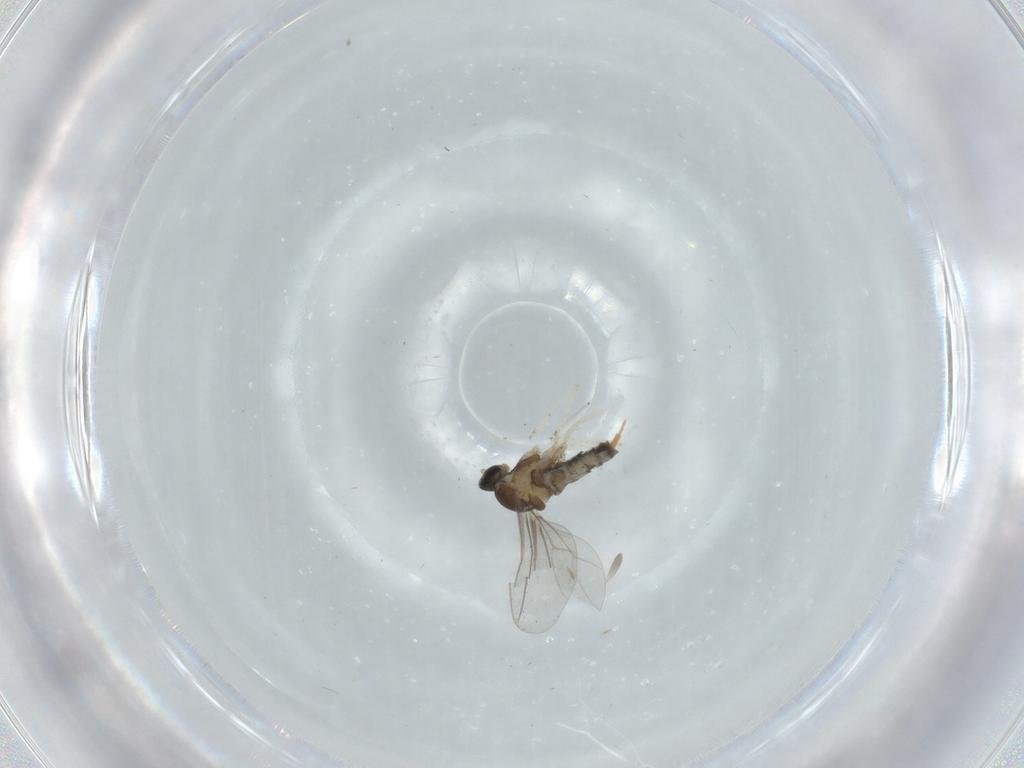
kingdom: Animalia
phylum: Arthropoda
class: Insecta
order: Diptera
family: Cecidomyiidae
